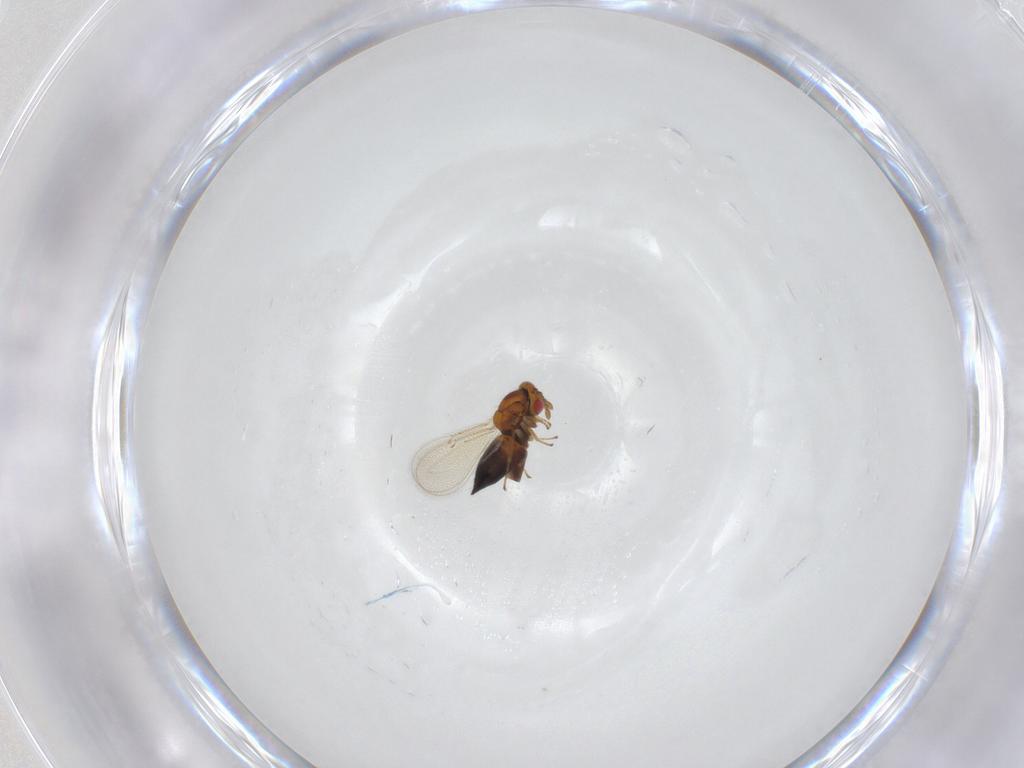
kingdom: Animalia
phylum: Arthropoda
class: Insecta
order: Hymenoptera
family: Eulophidae
